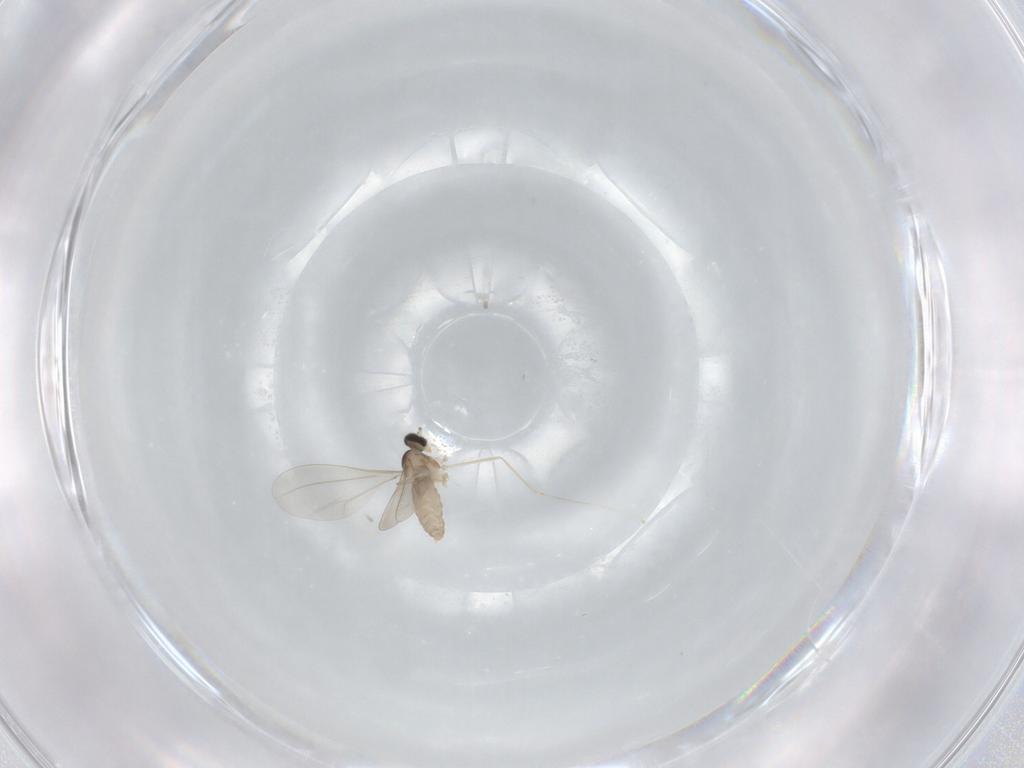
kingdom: Animalia
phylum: Arthropoda
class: Insecta
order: Diptera
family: Cecidomyiidae
